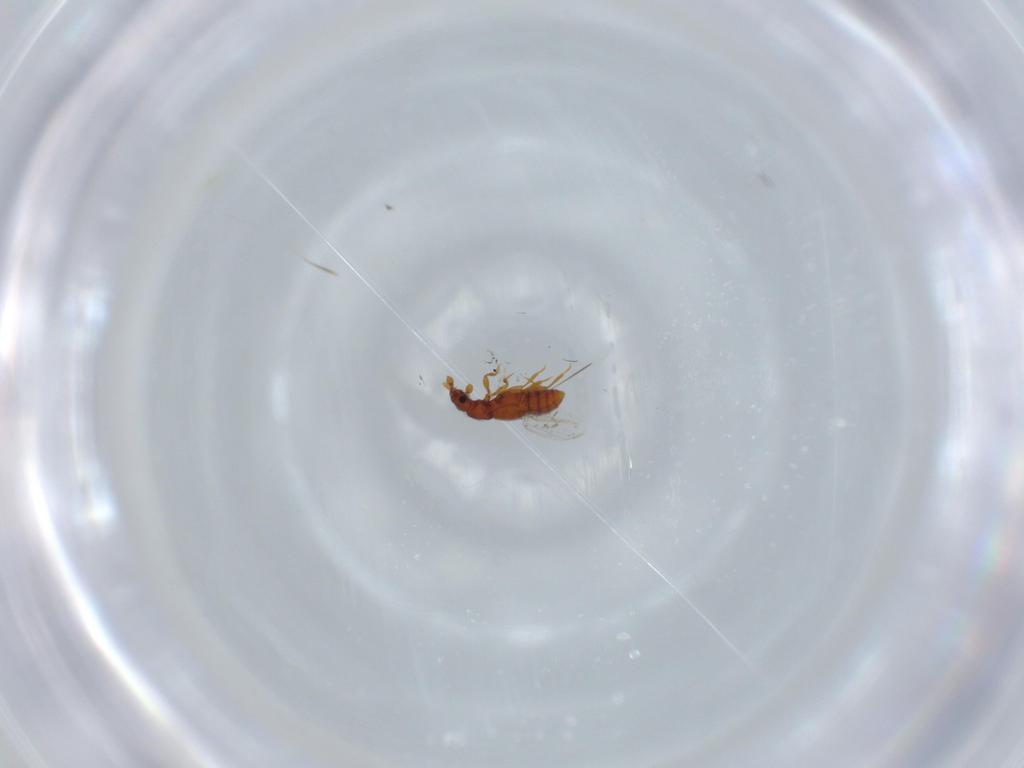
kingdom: Animalia
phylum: Arthropoda
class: Insecta
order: Coleoptera
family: Staphylinidae
